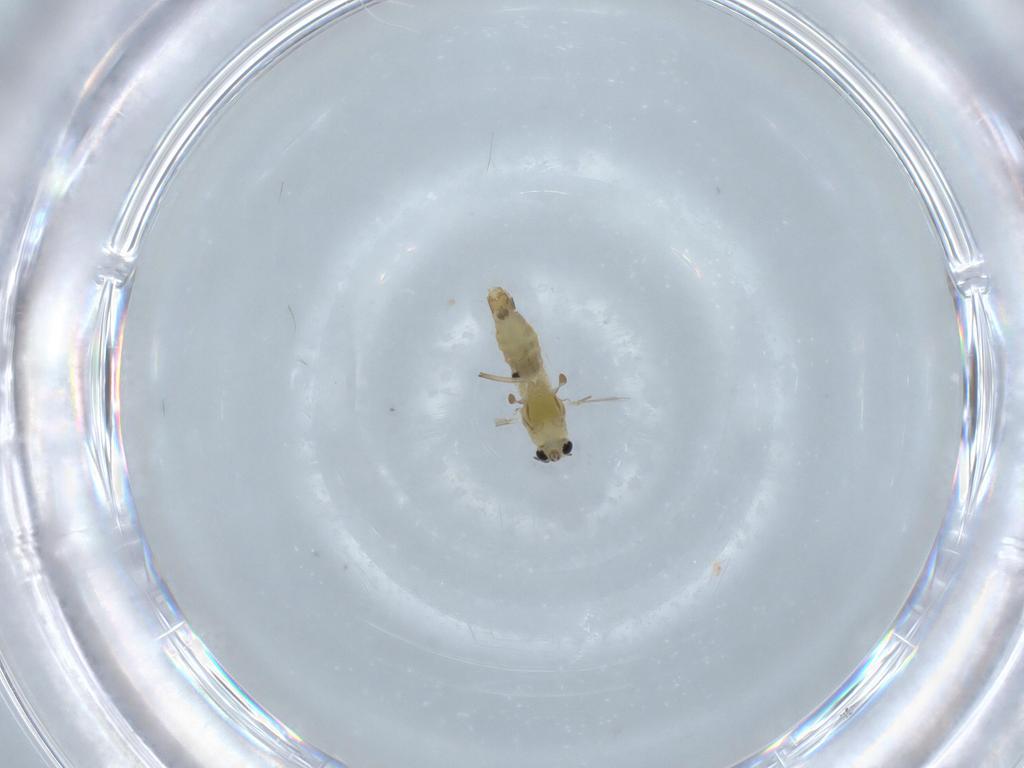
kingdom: Animalia
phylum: Arthropoda
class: Insecta
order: Diptera
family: Chironomidae
